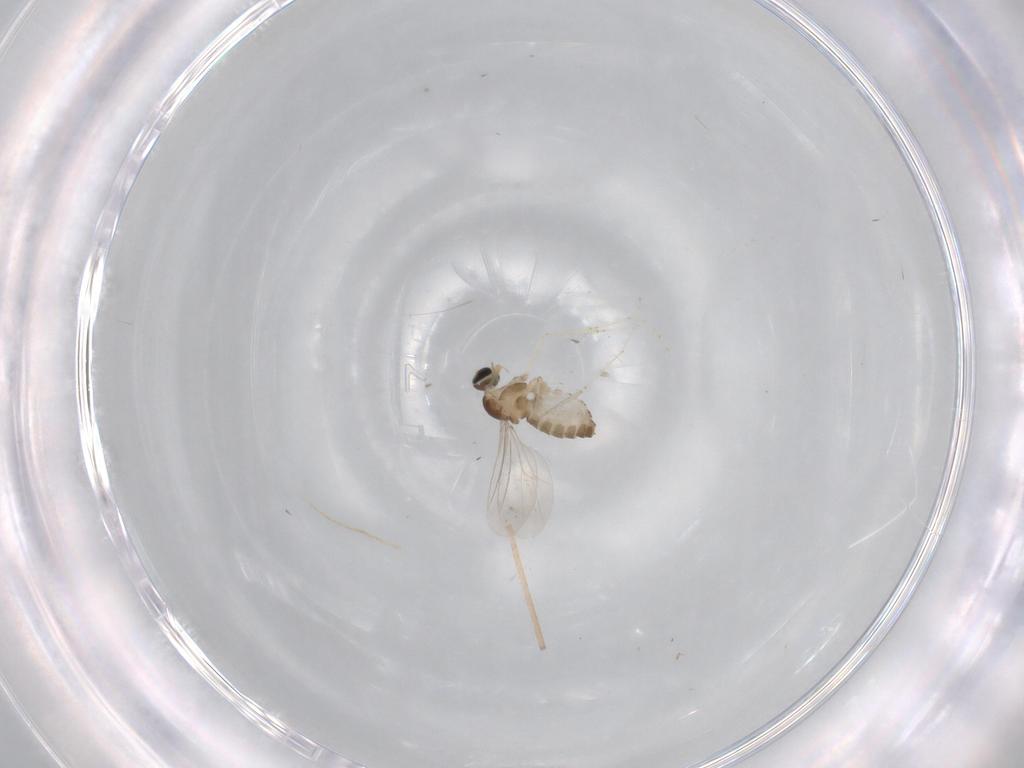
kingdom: Animalia
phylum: Arthropoda
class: Insecta
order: Diptera
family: Cecidomyiidae
